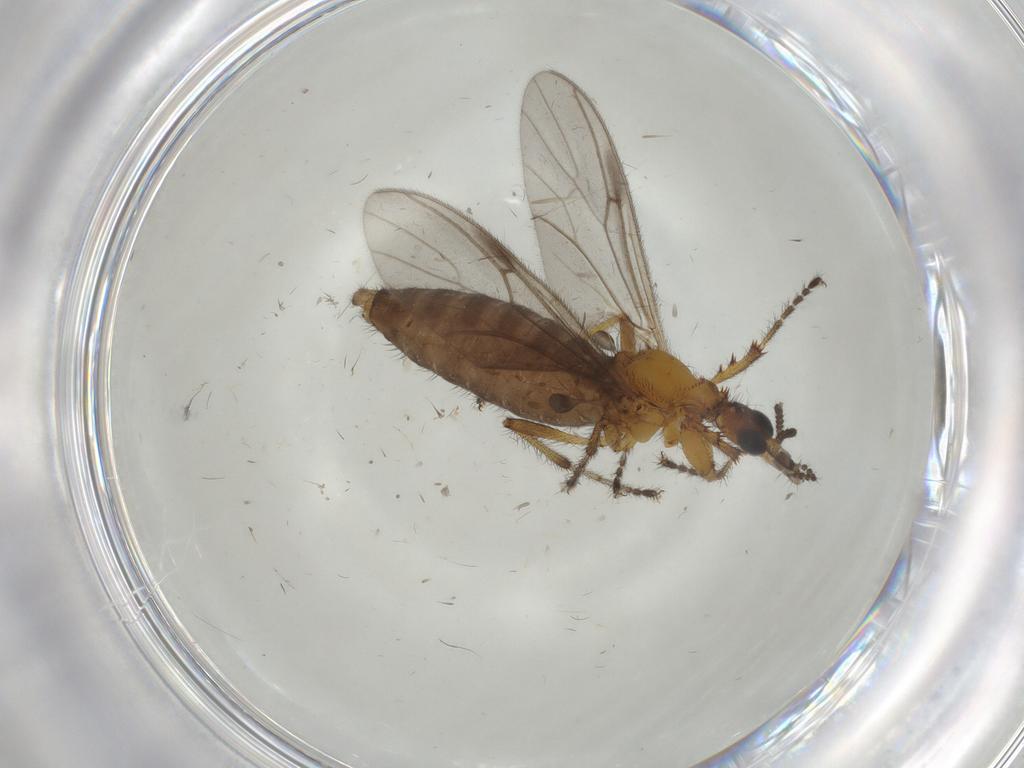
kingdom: Animalia
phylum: Arthropoda
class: Insecta
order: Diptera
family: Bibionidae
